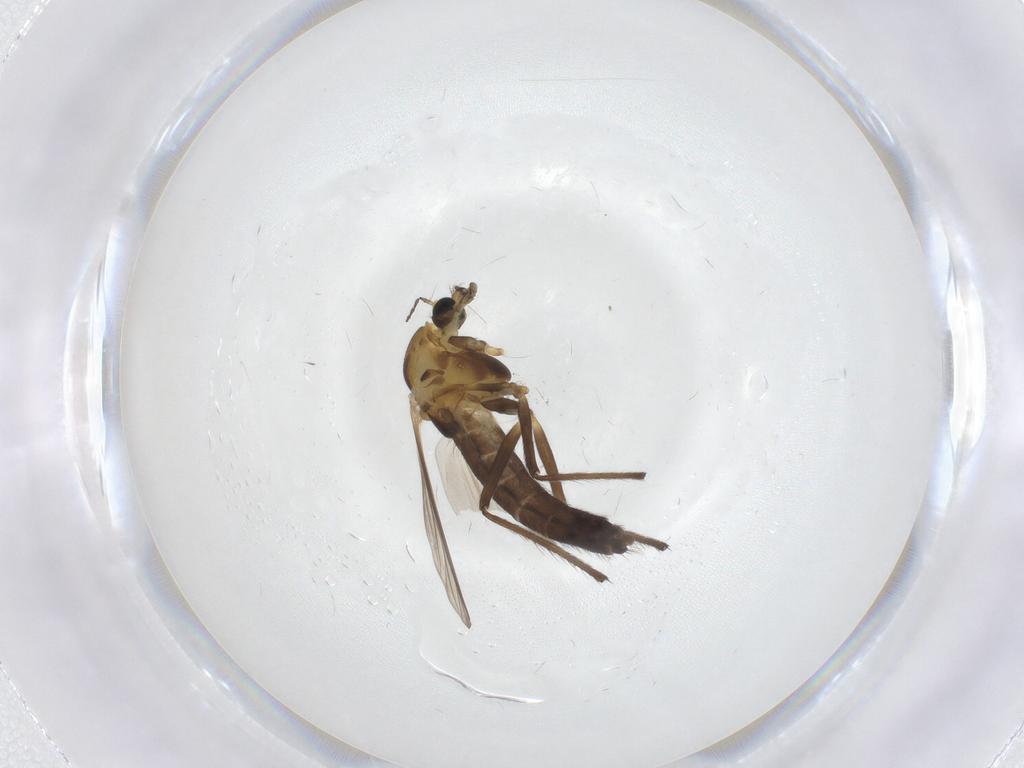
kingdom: Animalia
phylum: Arthropoda
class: Insecta
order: Diptera
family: Chironomidae
